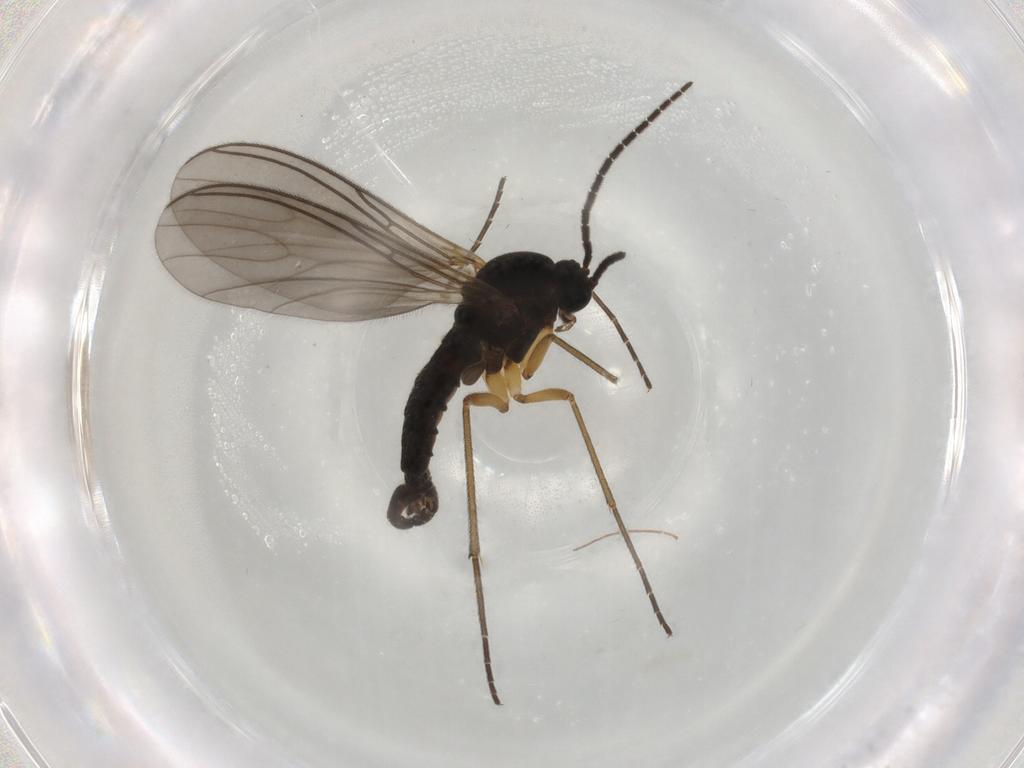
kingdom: Animalia
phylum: Arthropoda
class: Insecta
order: Diptera
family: Sciaridae
